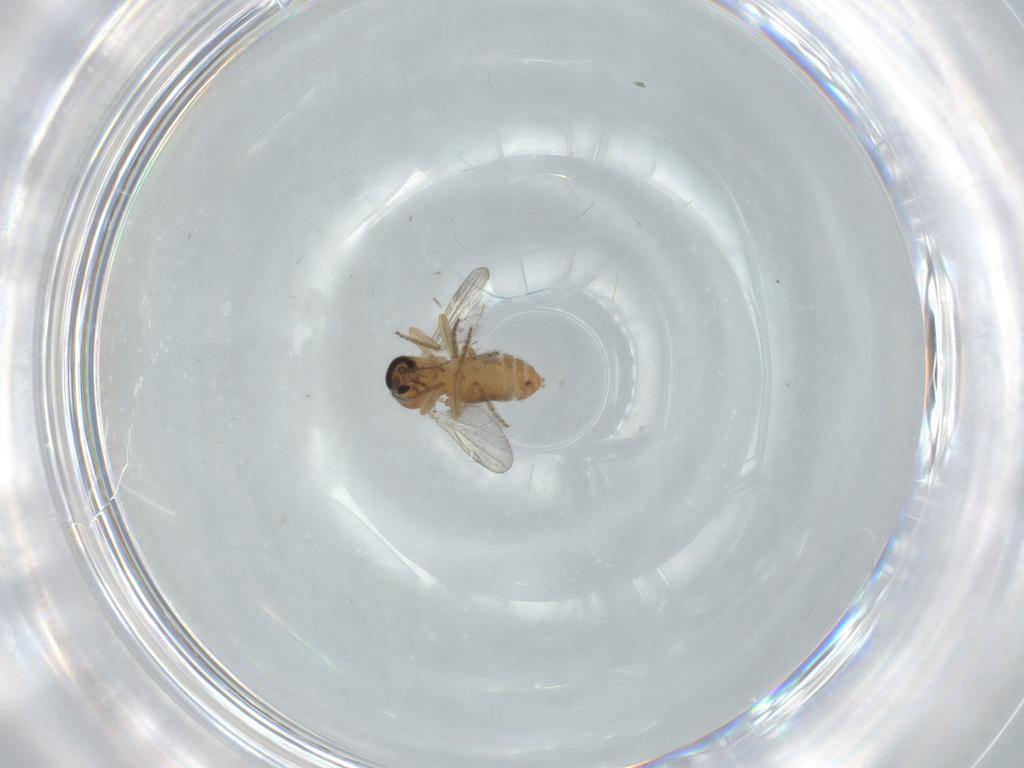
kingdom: Animalia
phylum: Arthropoda
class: Insecta
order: Diptera
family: Ceratopogonidae
